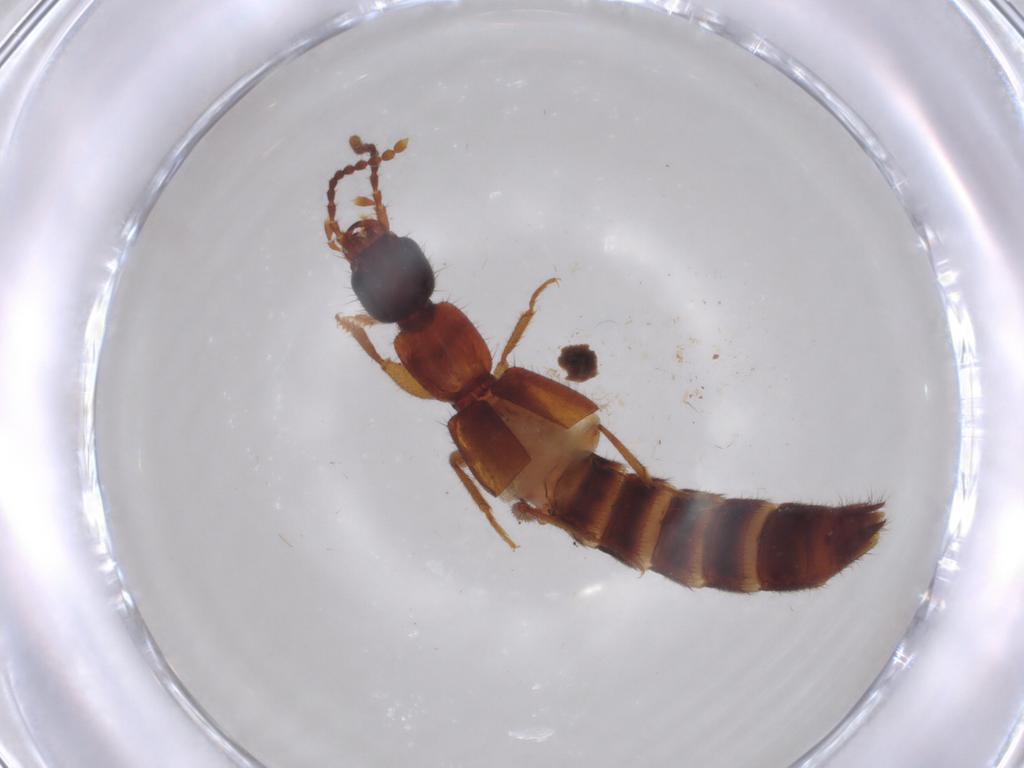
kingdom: Animalia
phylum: Arthropoda
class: Insecta
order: Coleoptera
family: Staphylinidae
